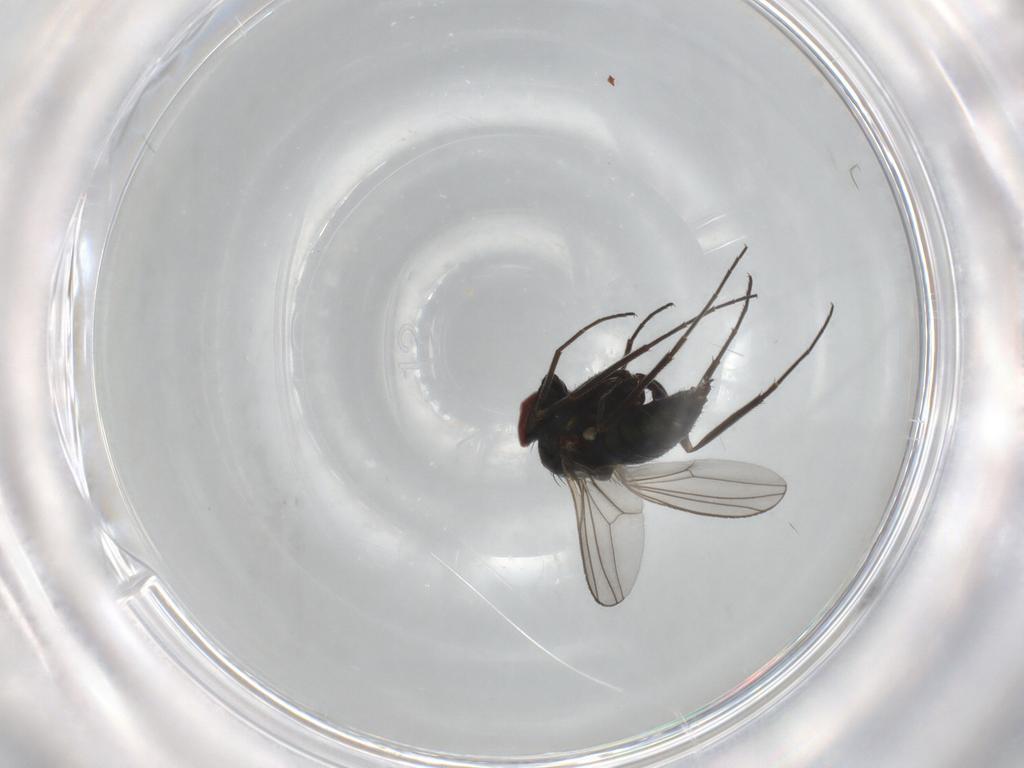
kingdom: Animalia
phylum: Arthropoda
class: Insecta
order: Diptera
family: Dolichopodidae
